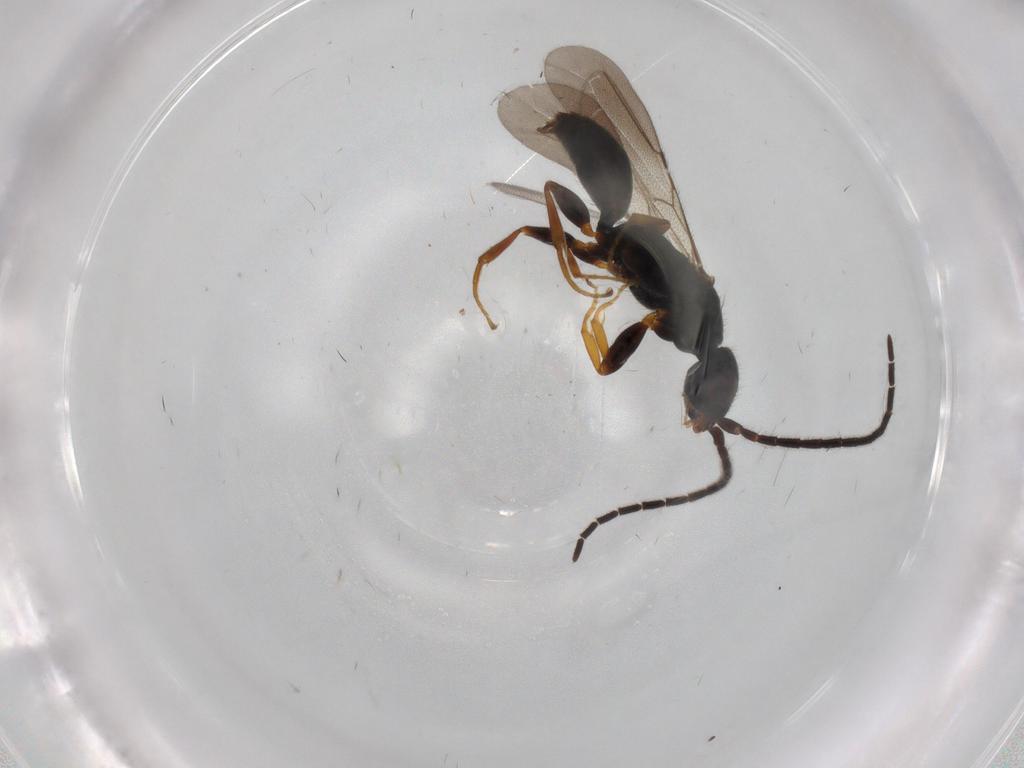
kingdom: Animalia
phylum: Arthropoda
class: Insecta
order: Hymenoptera
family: Bethylidae
